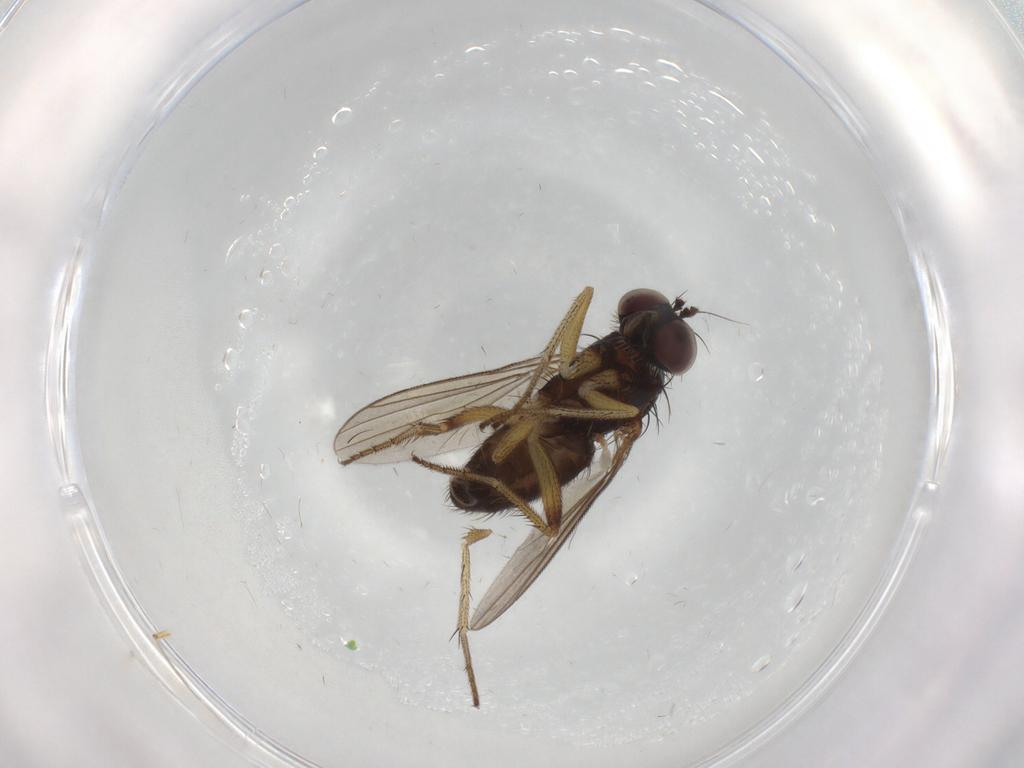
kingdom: Animalia
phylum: Arthropoda
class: Insecta
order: Diptera
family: Dolichopodidae
